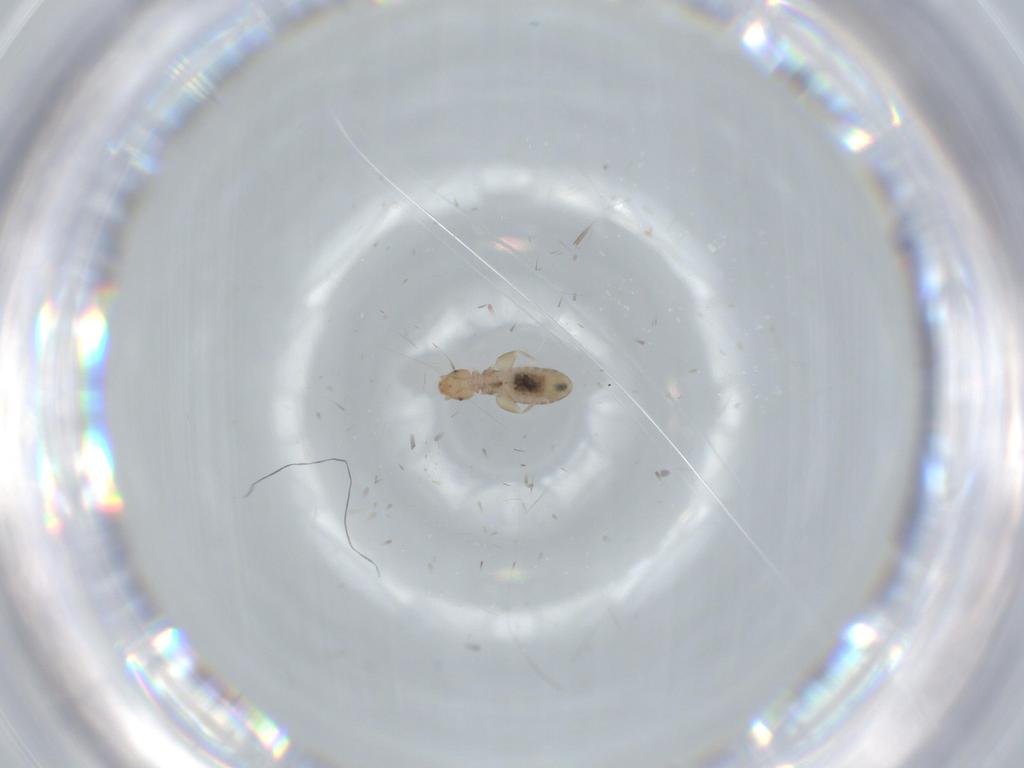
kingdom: Animalia
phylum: Arthropoda
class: Insecta
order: Psocodea
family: Liposcelididae
